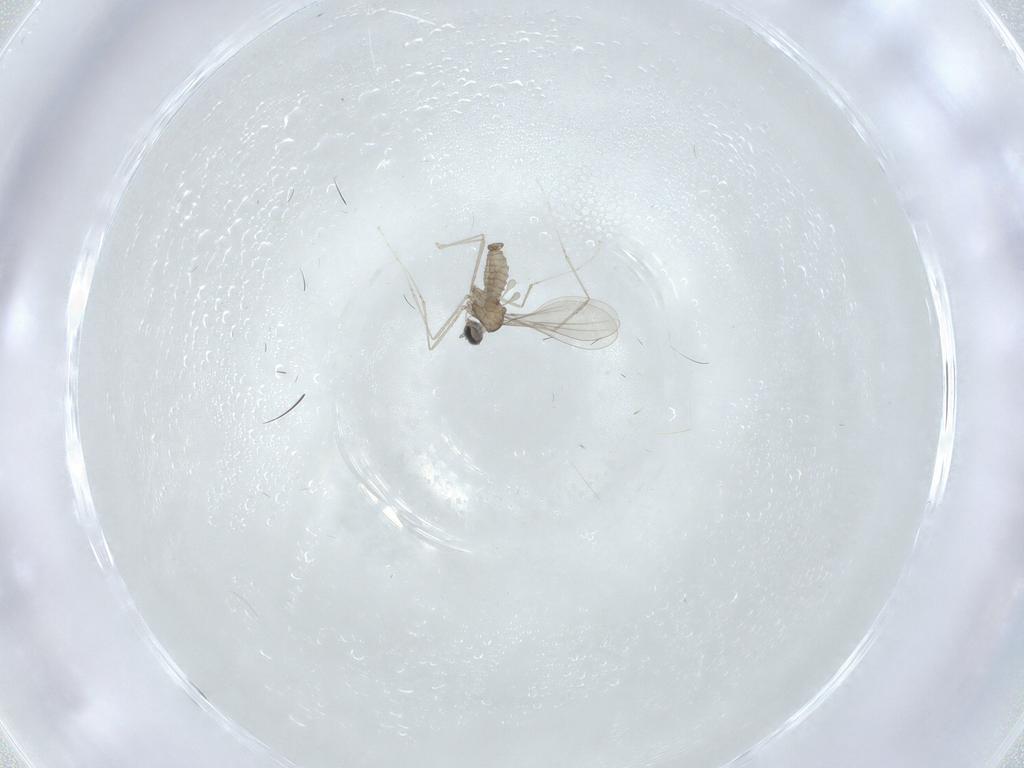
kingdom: Animalia
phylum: Arthropoda
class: Insecta
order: Diptera
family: Cecidomyiidae
